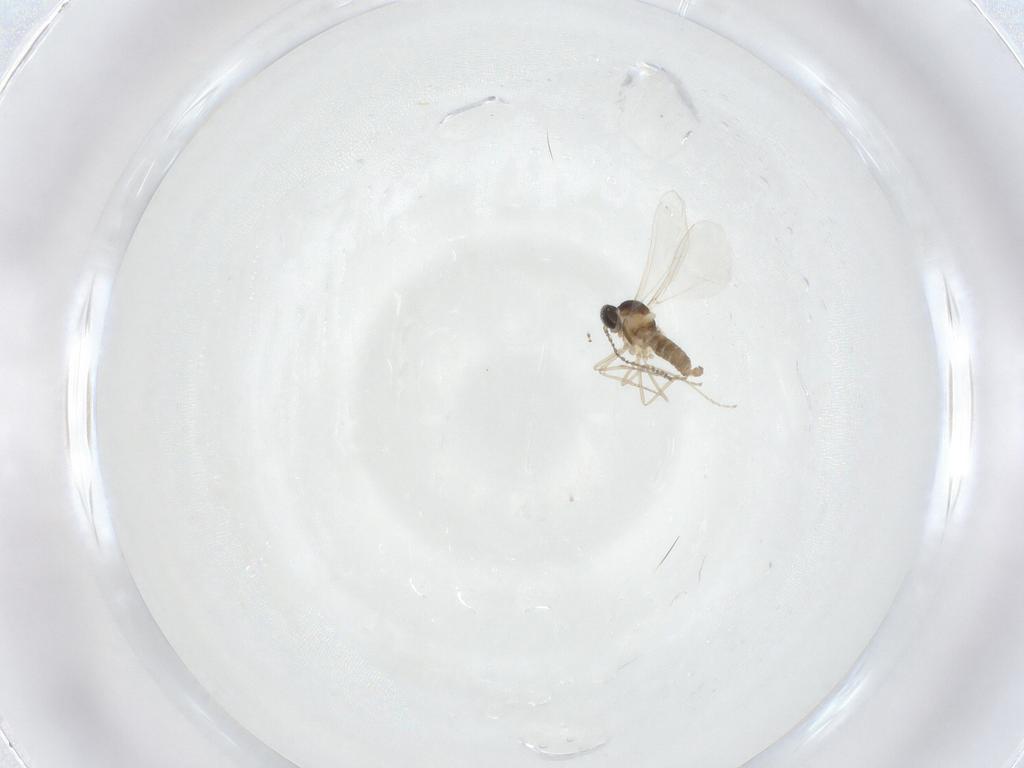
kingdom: Animalia
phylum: Arthropoda
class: Insecta
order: Diptera
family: Cecidomyiidae
